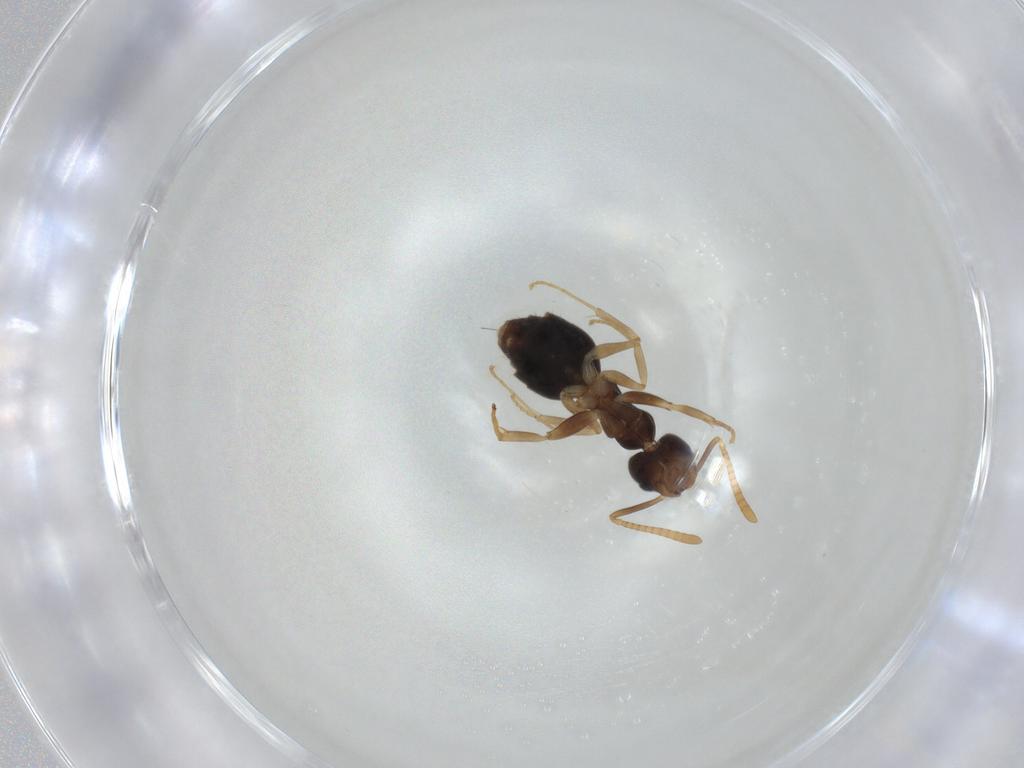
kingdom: Animalia
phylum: Arthropoda
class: Insecta
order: Hymenoptera
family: Formicidae
